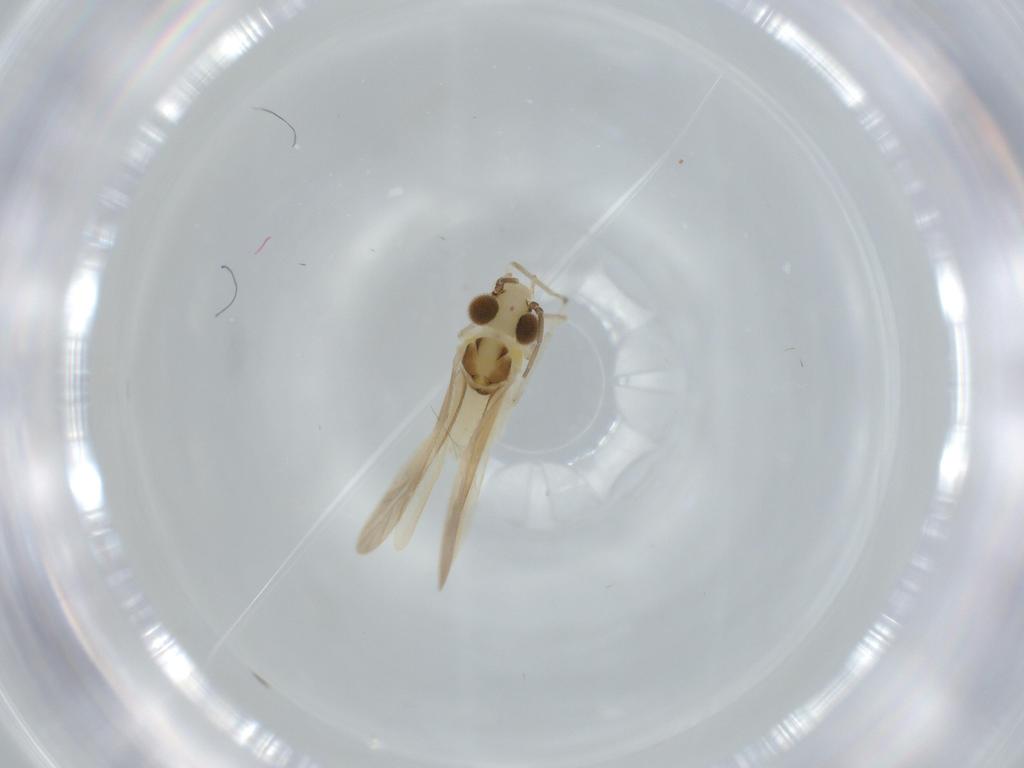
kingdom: Animalia
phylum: Arthropoda
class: Insecta
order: Psocodea
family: Caeciliusidae
